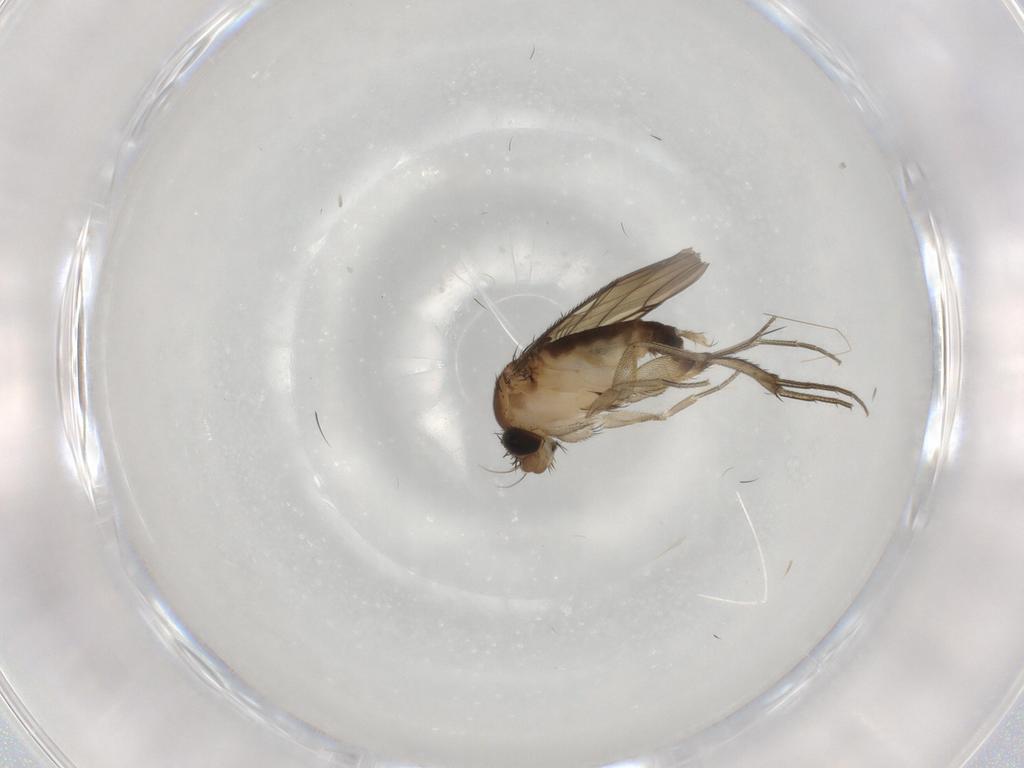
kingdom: Animalia
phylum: Arthropoda
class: Insecta
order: Diptera
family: Phoridae
